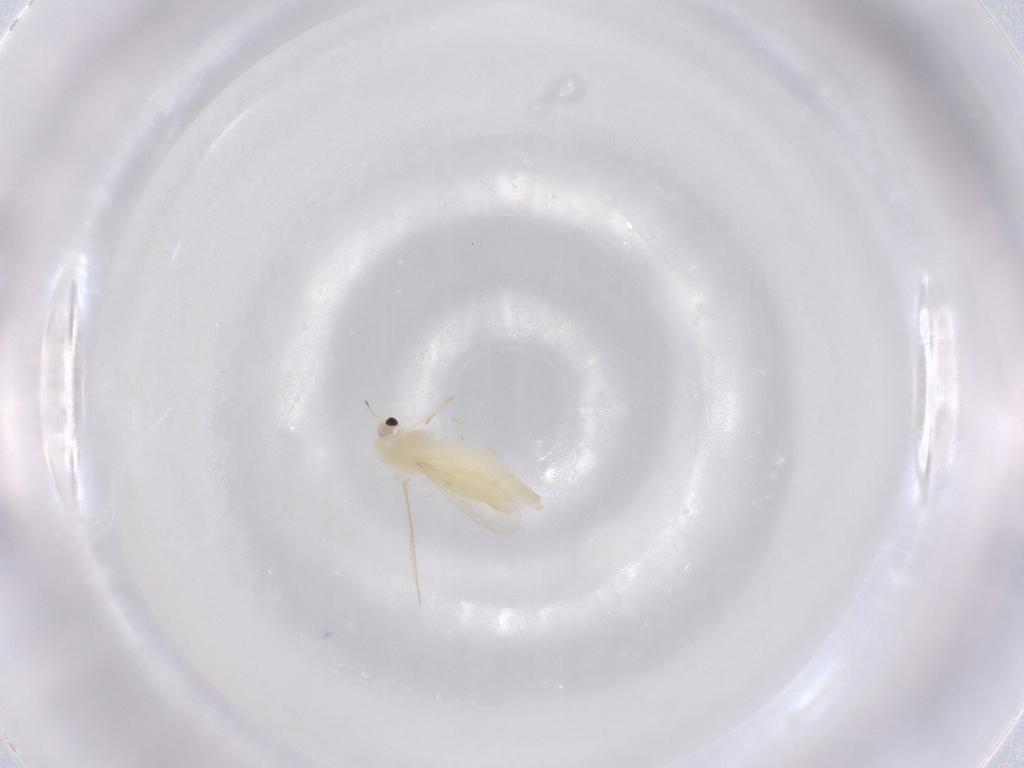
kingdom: Animalia
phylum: Arthropoda
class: Insecta
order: Diptera
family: Chironomidae
